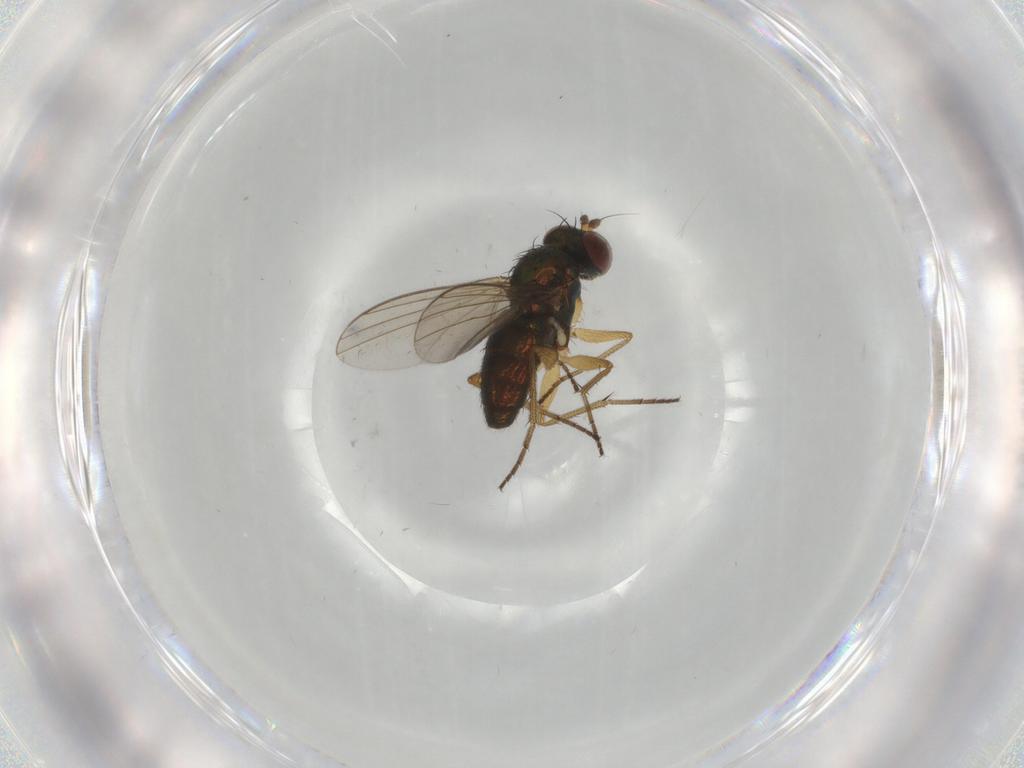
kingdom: Animalia
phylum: Arthropoda
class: Insecta
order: Diptera
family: Dolichopodidae
